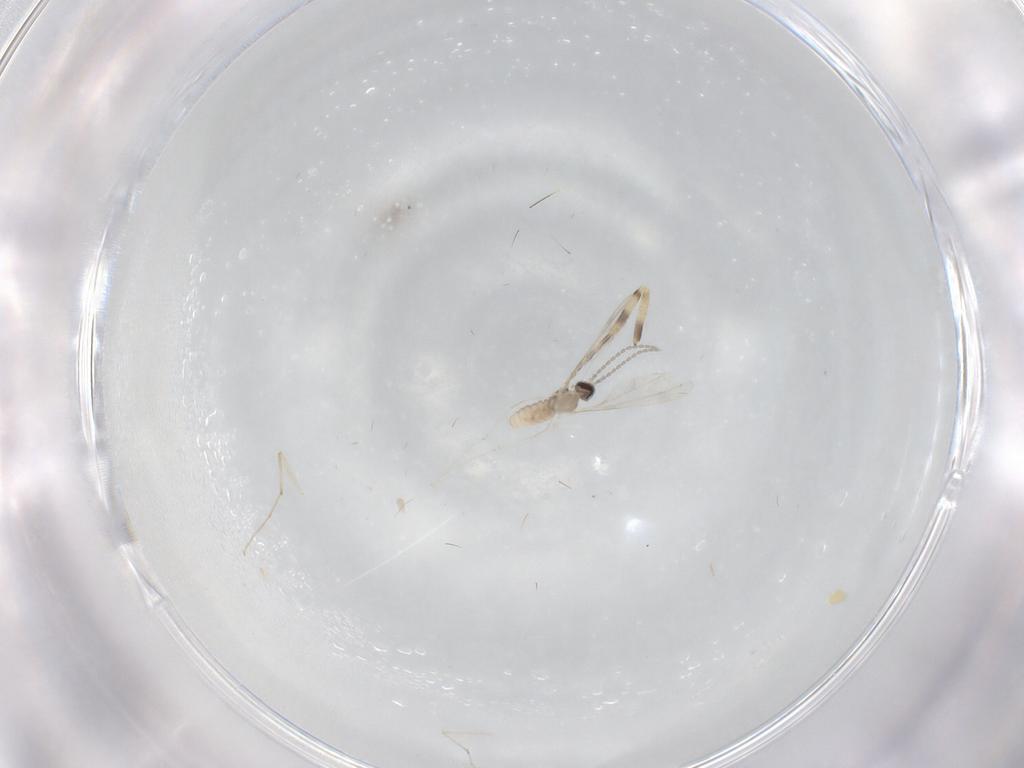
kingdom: Animalia
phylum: Arthropoda
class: Insecta
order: Diptera
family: Cecidomyiidae
